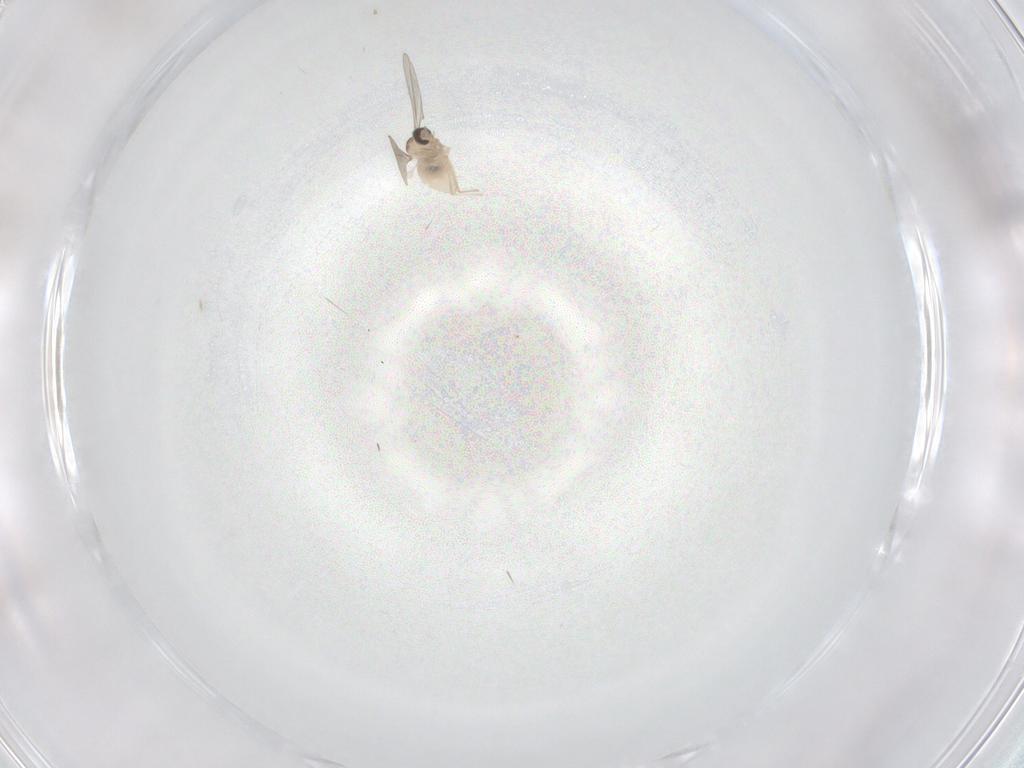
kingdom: Animalia
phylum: Arthropoda
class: Insecta
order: Diptera
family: Cecidomyiidae
